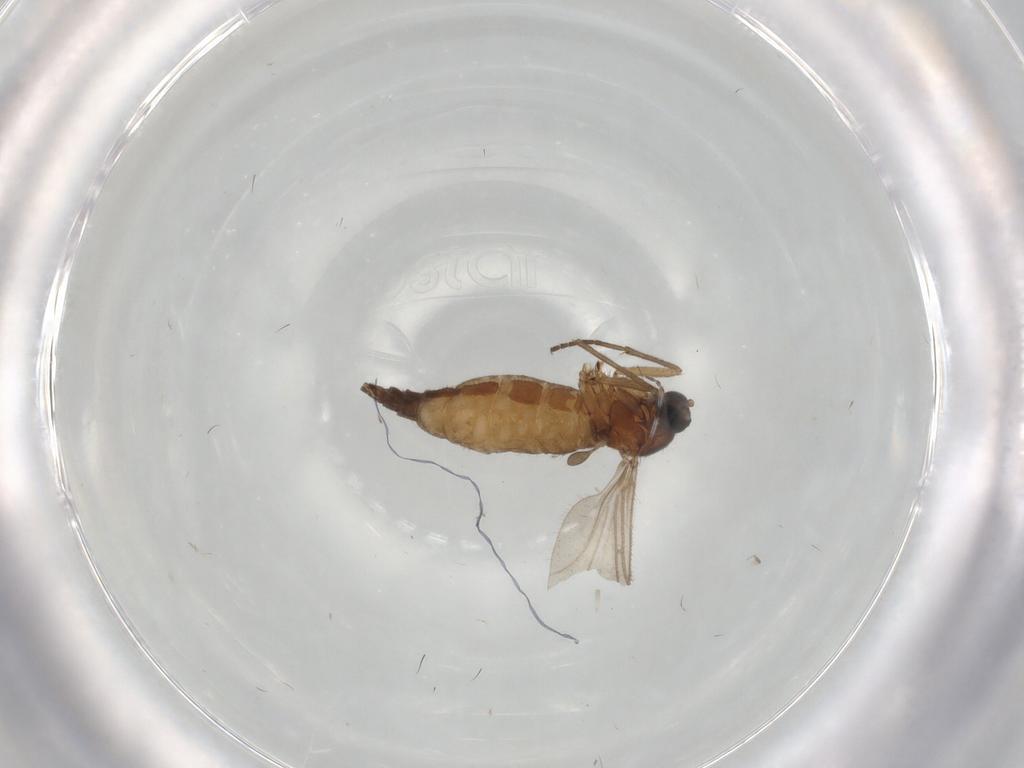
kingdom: Animalia
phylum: Arthropoda
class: Insecta
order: Diptera
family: Sciaridae
